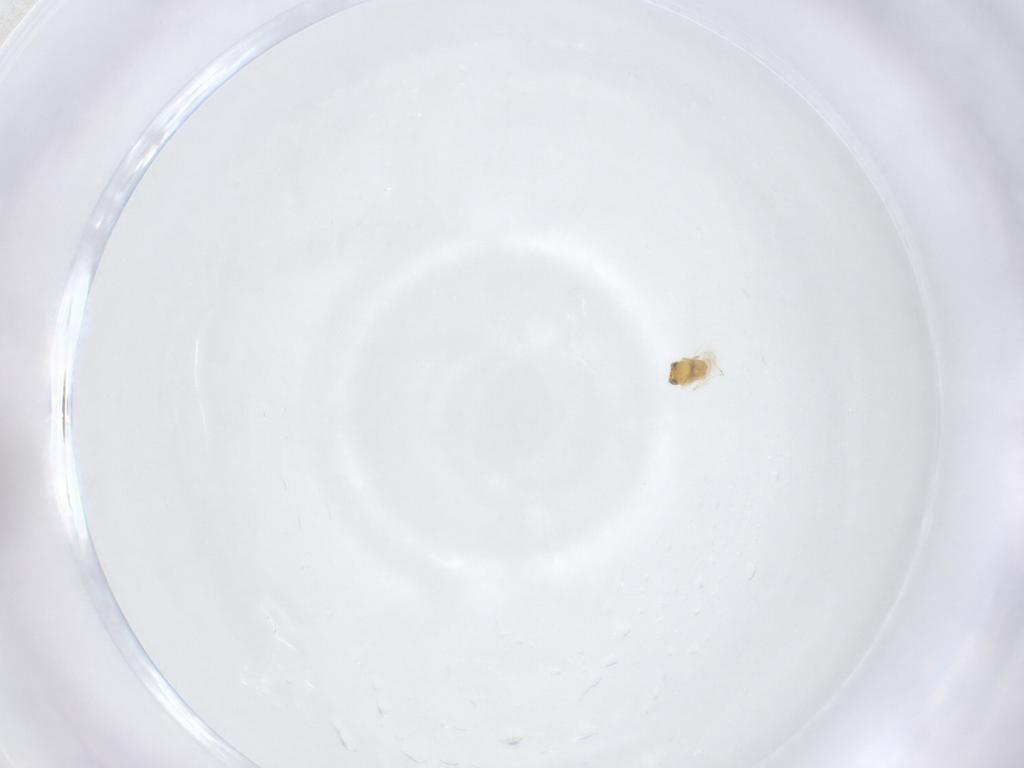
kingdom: Animalia
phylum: Arthropoda
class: Insecta
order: Hymenoptera
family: Aphelinidae
